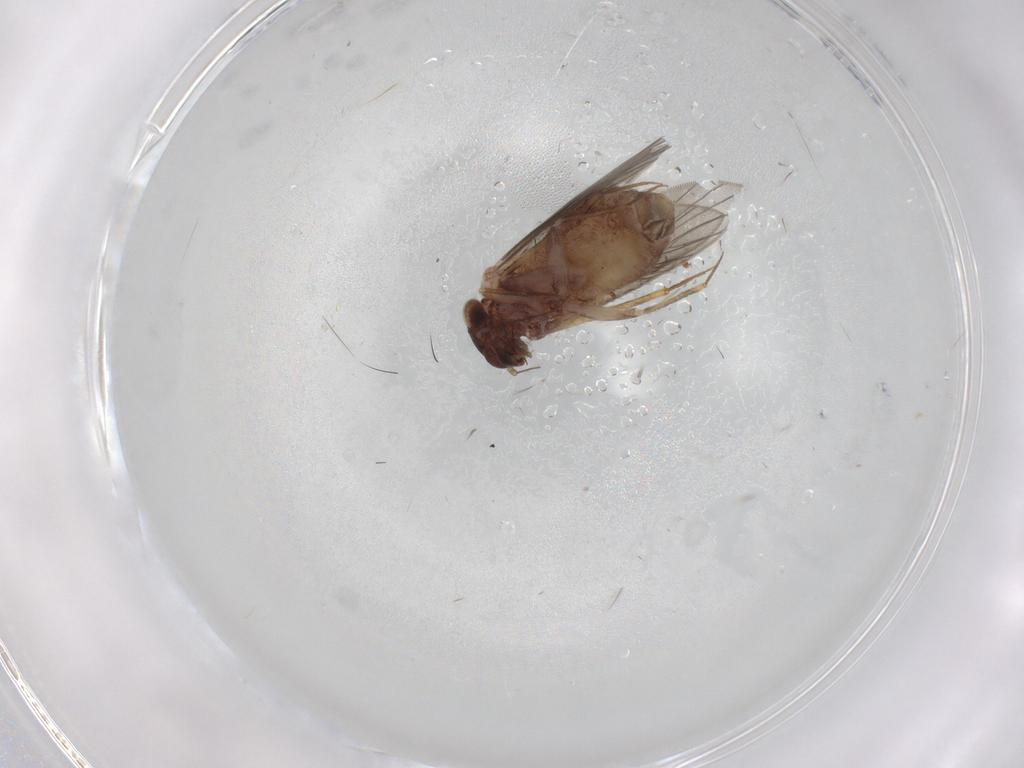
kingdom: Animalia
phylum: Arthropoda
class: Insecta
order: Psocodea
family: Lepidopsocidae
